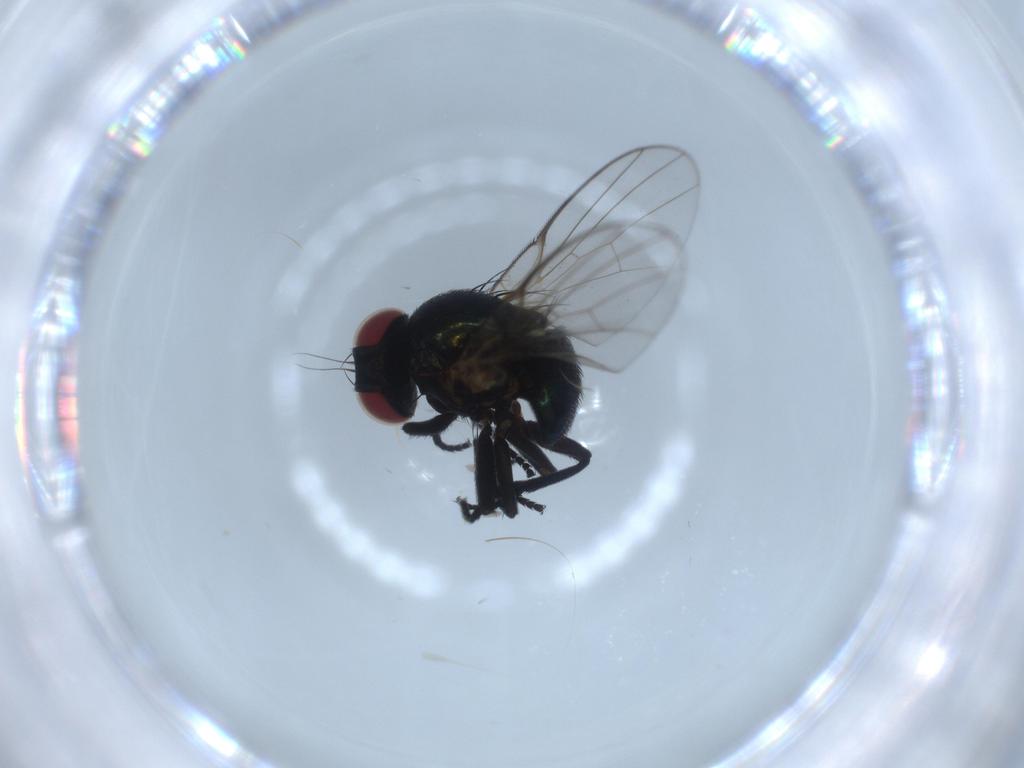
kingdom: Animalia
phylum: Arthropoda
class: Insecta
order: Diptera
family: Agromyzidae
